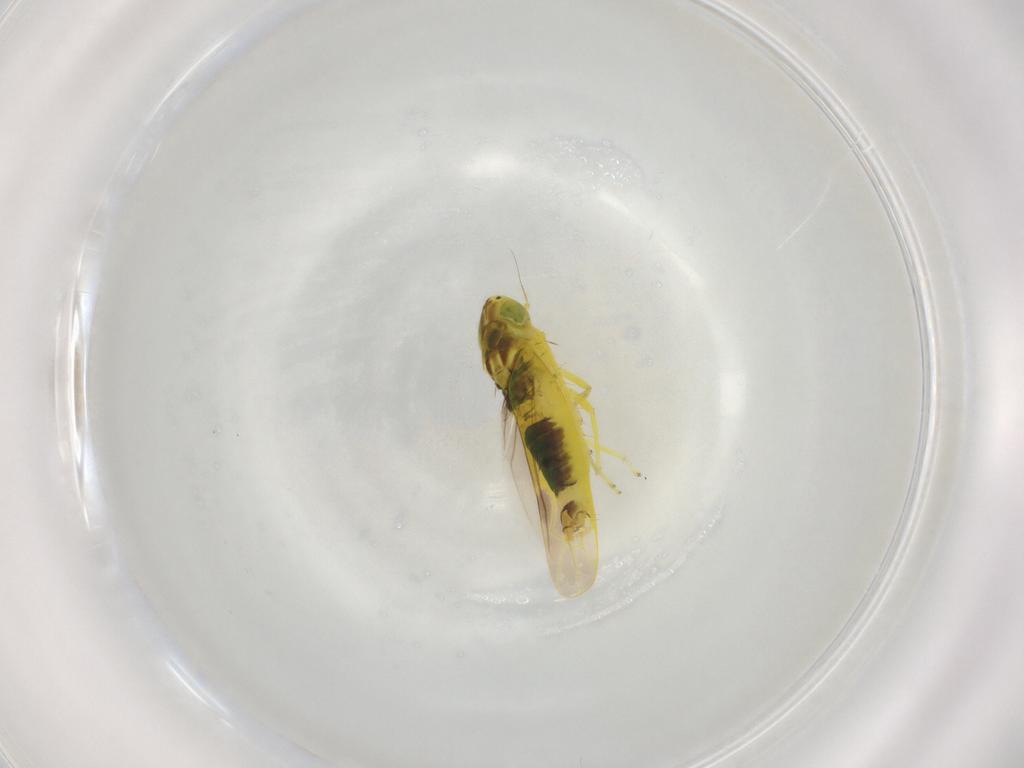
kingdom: Animalia
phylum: Arthropoda
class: Insecta
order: Hemiptera
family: Cicadellidae
